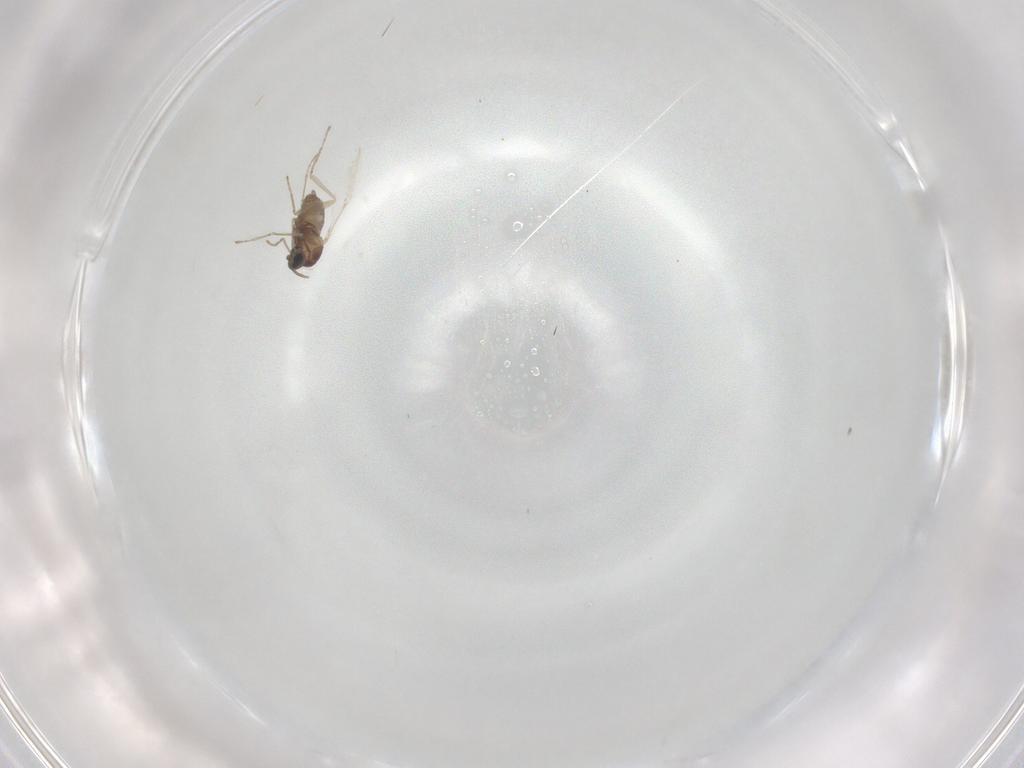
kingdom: Animalia
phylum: Arthropoda
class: Insecta
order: Diptera
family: Cecidomyiidae
